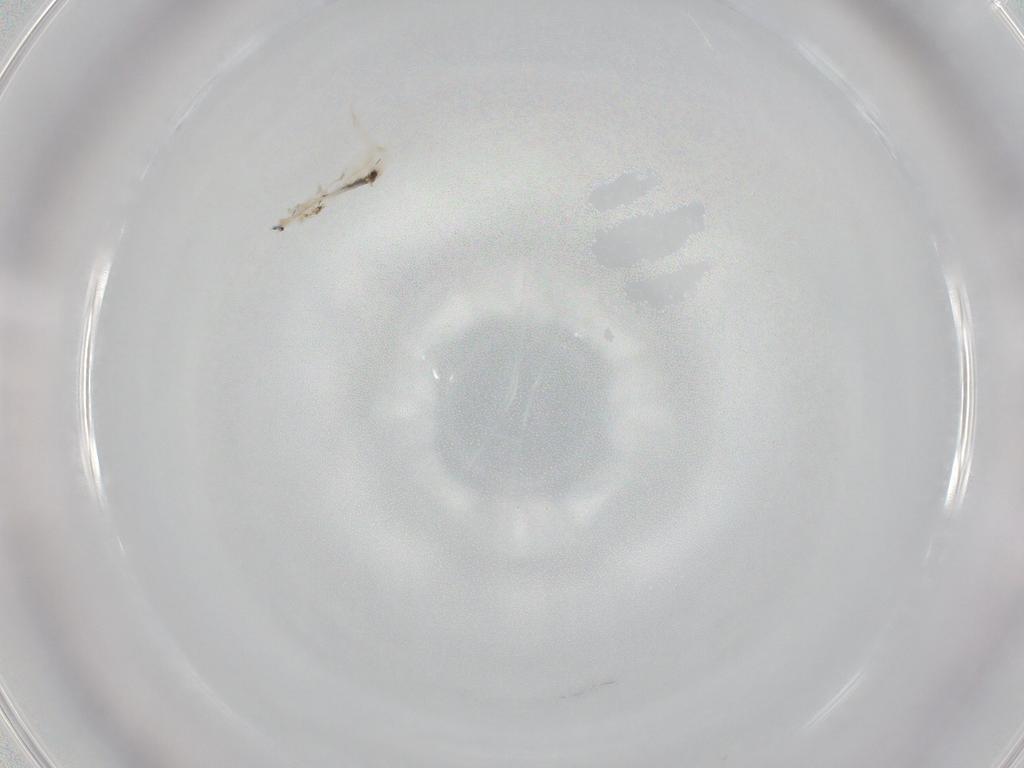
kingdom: Animalia
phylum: Arthropoda
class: Collembola
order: Entomobryomorpha
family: Entomobryidae
